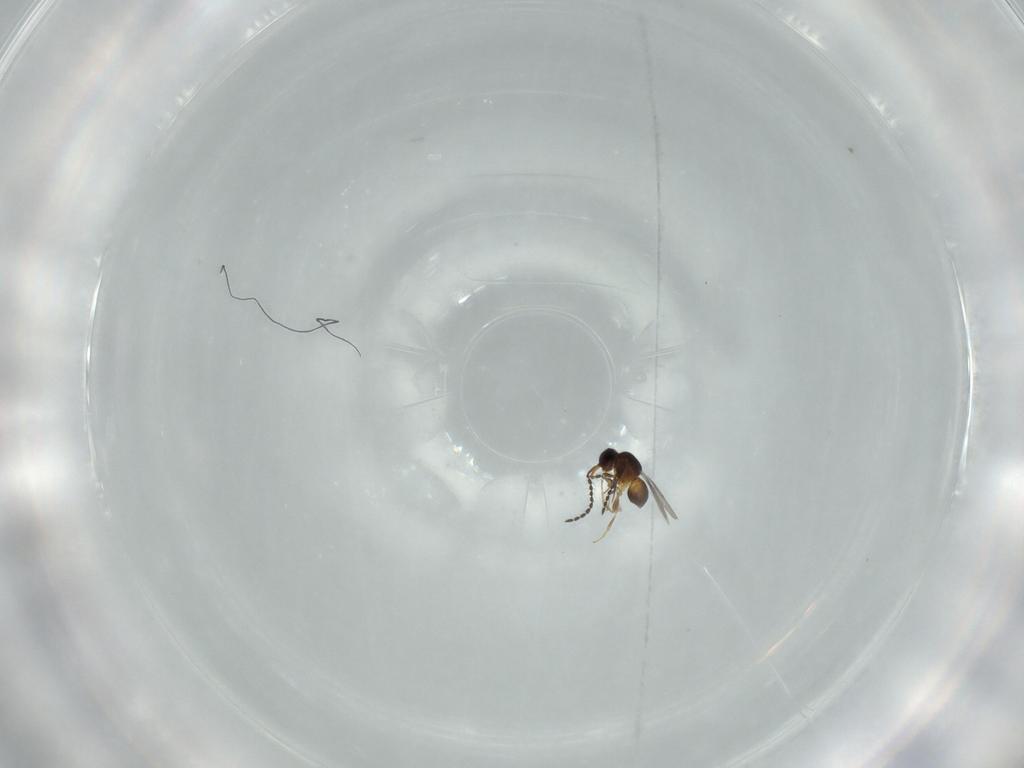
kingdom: Animalia
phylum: Arthropoda
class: Insecta
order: Hymenoptera
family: Ceraphronidae
